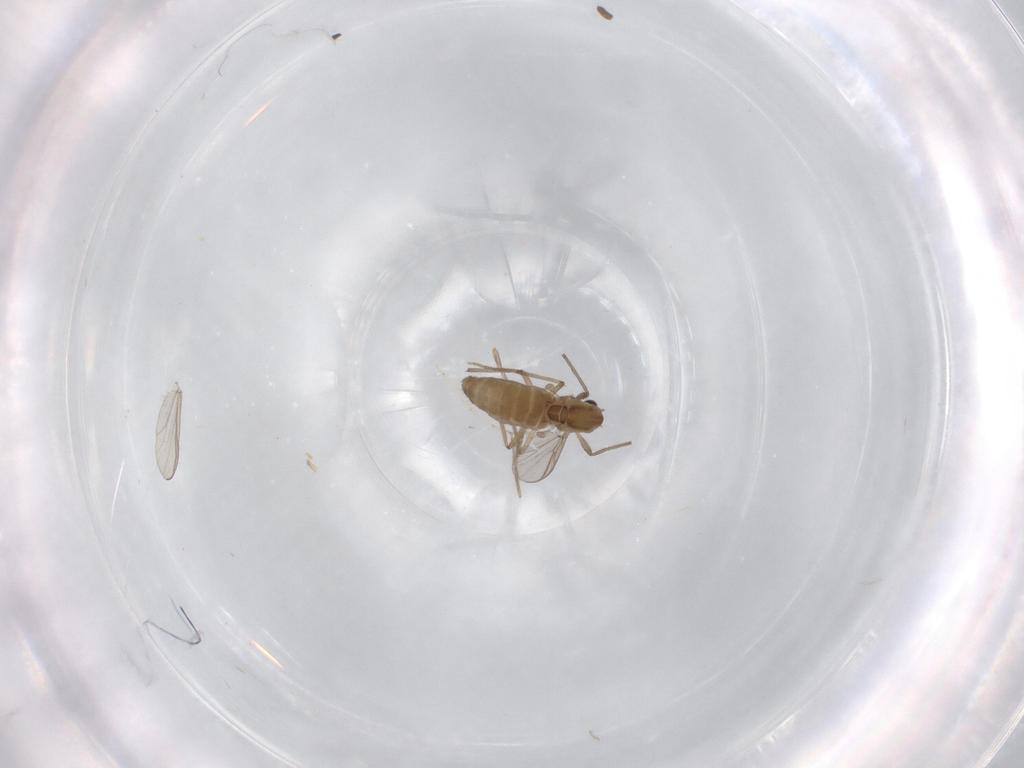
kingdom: Animalia
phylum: Arthropoda
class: Insecta
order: Diptera
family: Chironomidae
